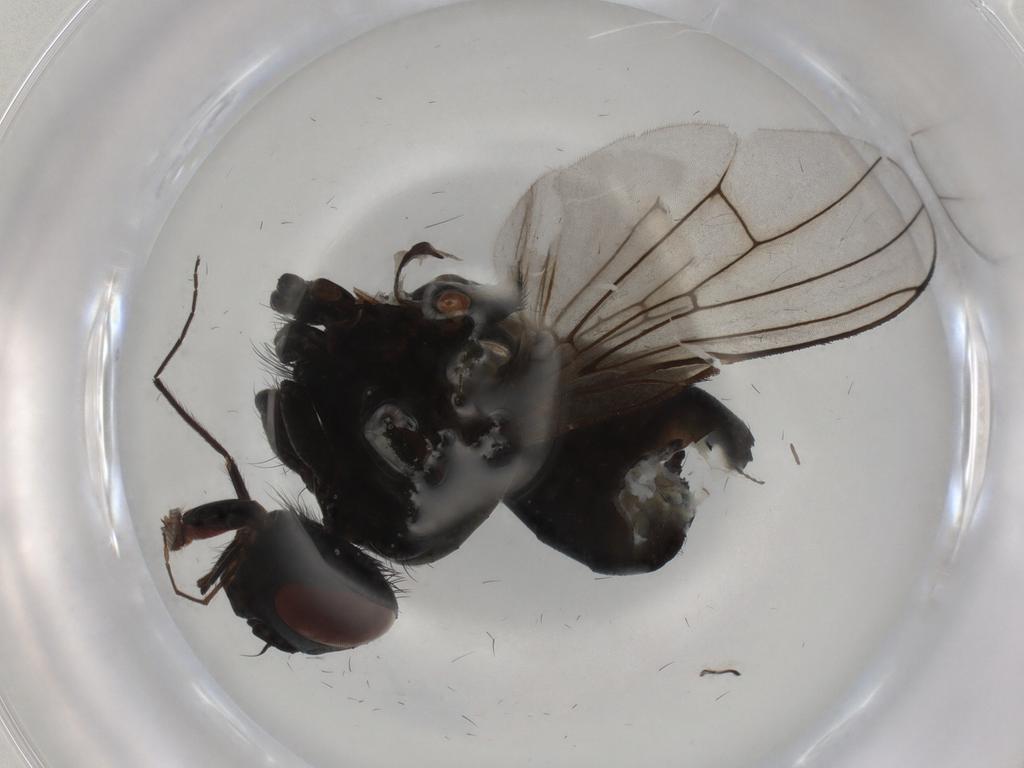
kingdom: Animalia
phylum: Arthropoda
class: Insecta
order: Diptera
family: Muscidae
